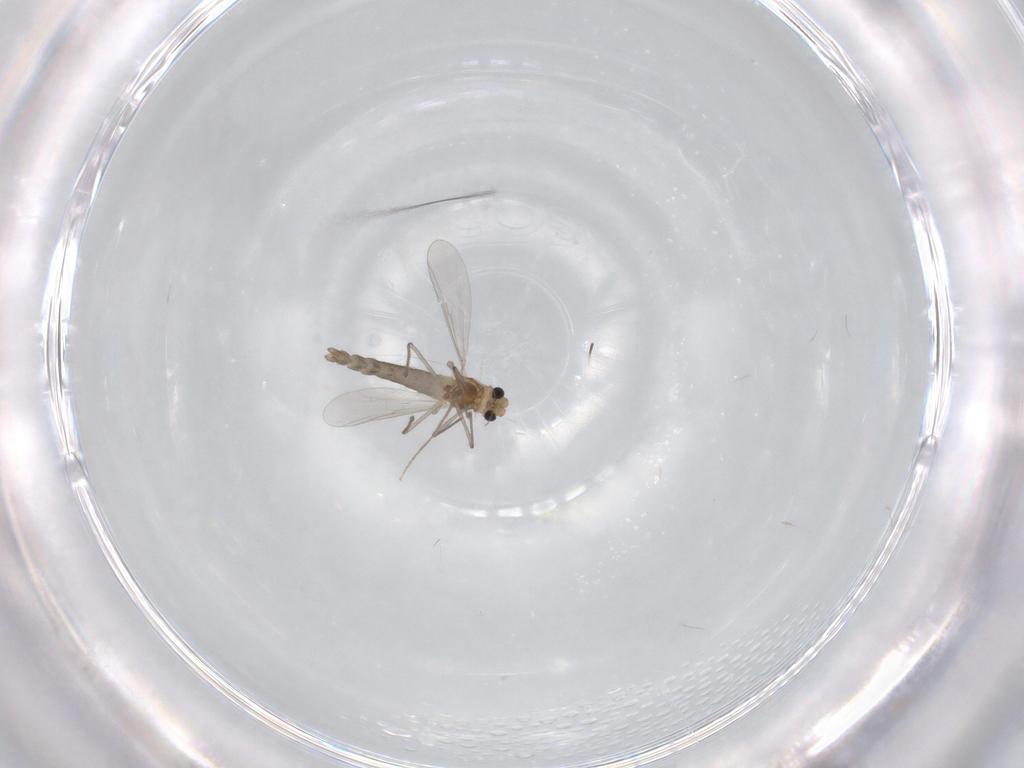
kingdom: Animalia
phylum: Arthropoda
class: Insecta
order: Diptera
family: Chironomidae
